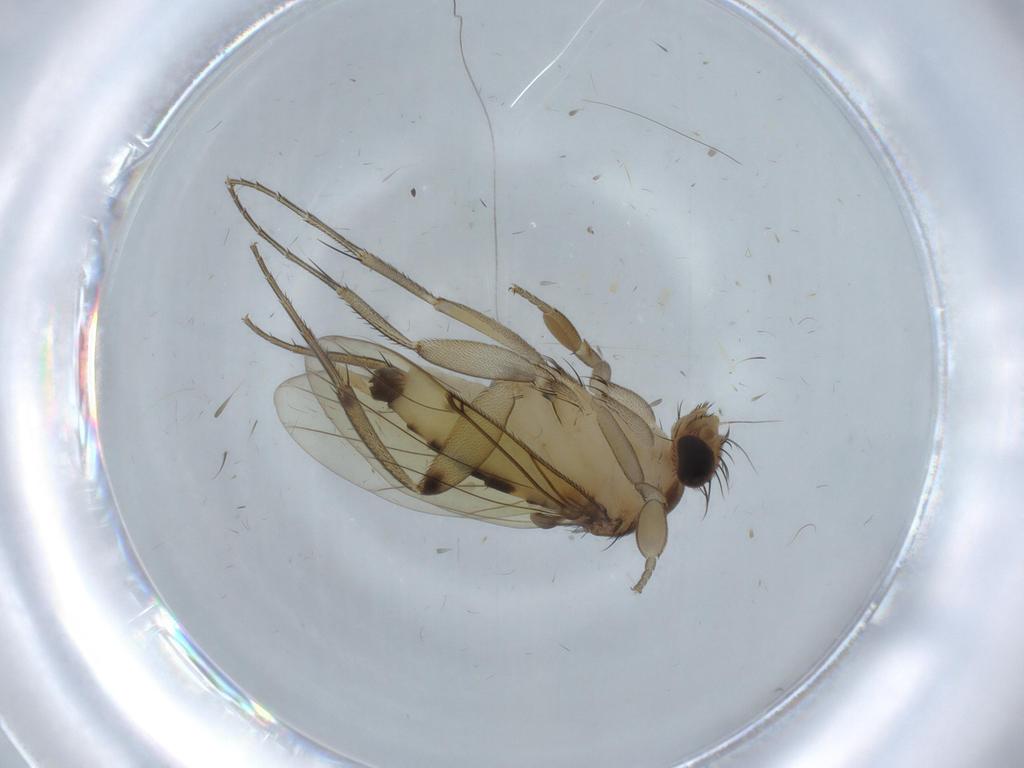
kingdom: Animalia
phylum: Arthropoda
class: Insecta
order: Diptera
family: Phoridae
